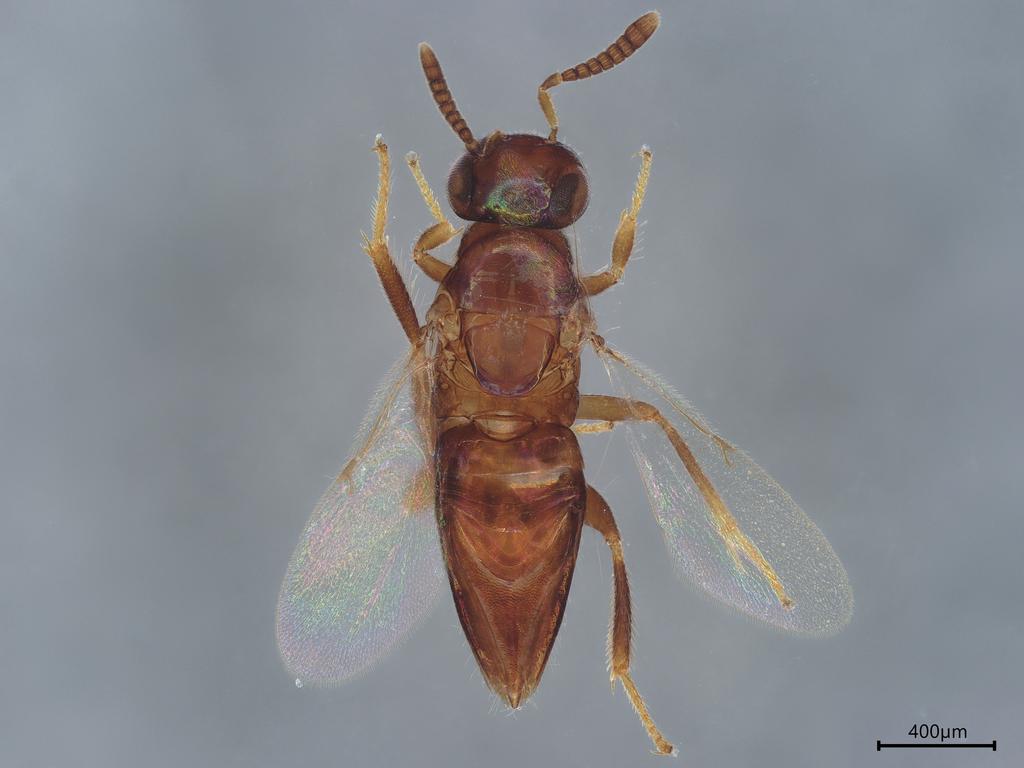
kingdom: Animalia
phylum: Arthropoda
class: Insecta
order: Hymenoptera
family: Encyrtidae
